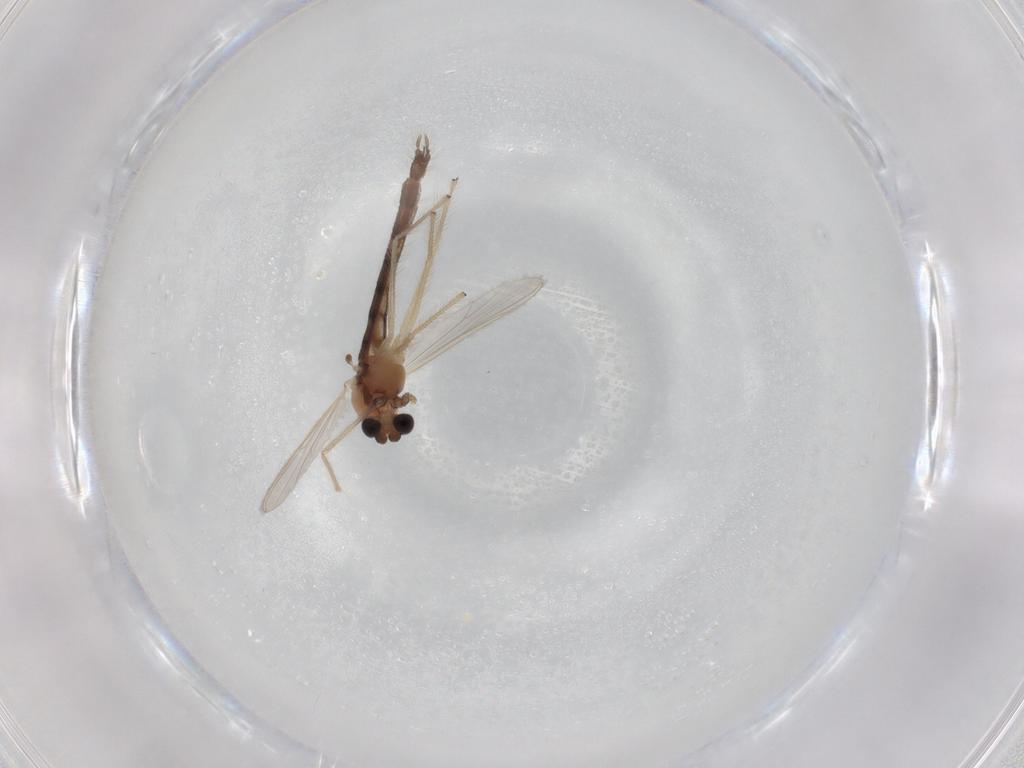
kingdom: Animalia
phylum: Arthropoda
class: Insecta
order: Diptera
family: Chironomidae
